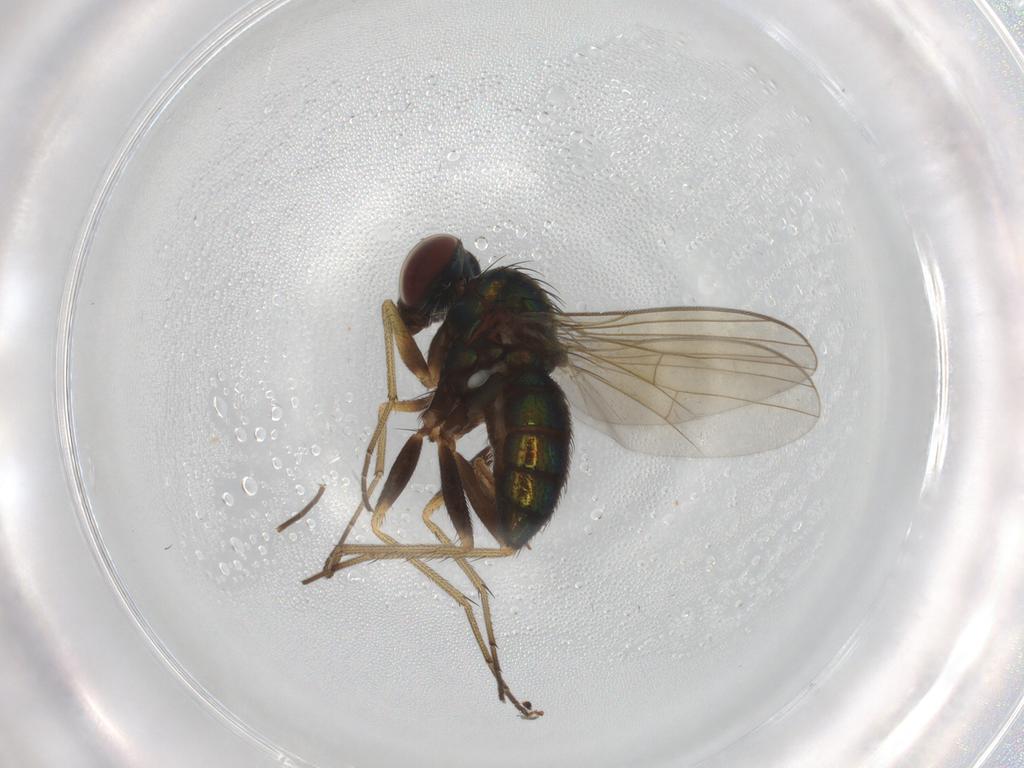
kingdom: Animalia
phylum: Arthropoda
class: Insecta
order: Diptera
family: Dolichopodidae
